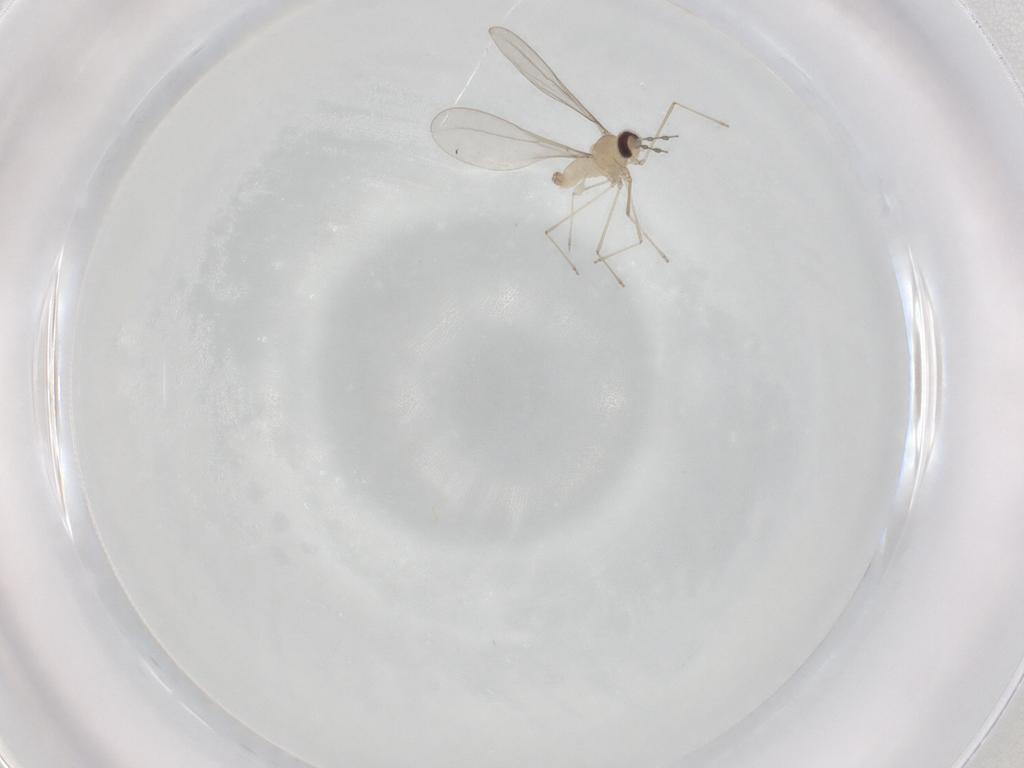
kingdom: Animalia
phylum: Arthropoda
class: Insecta
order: Diptera
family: Cecidomyiidae
